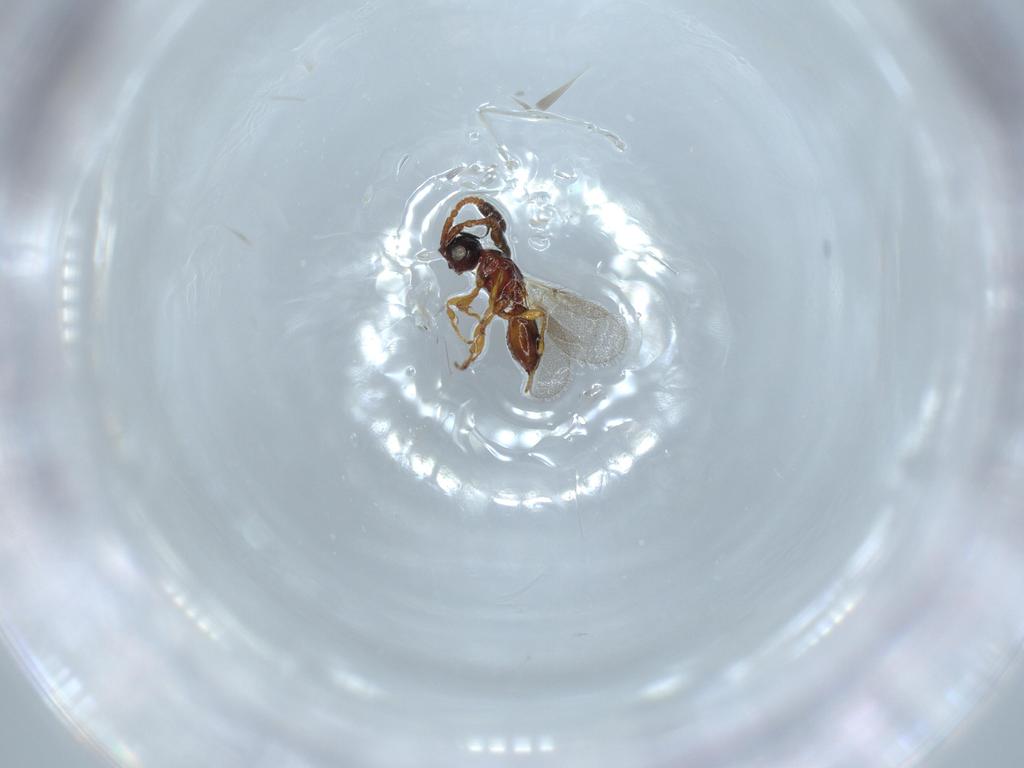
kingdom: Animalia
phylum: Arthropoda
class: Insecta
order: Hymenoptera
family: Diapriidae
